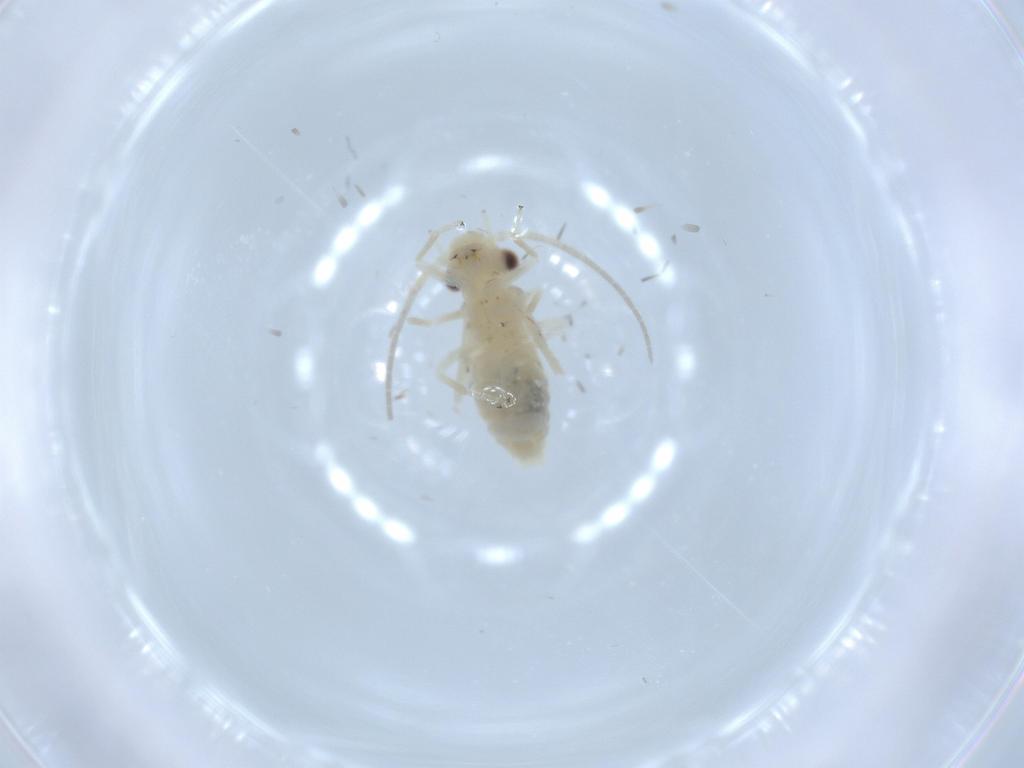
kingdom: Animalia
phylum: Arthropoda
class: Insecta
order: Psocodea
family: Caeciliusidae
